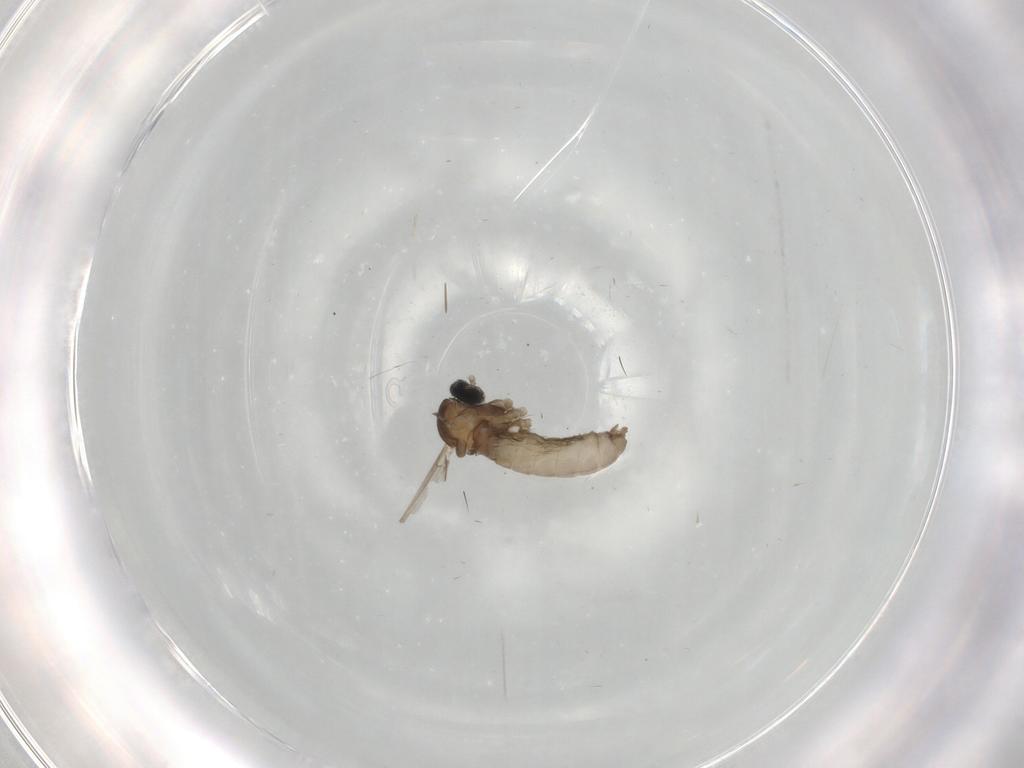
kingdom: Animalia
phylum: Arthropoda
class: Insecta
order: Diptera
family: Cecidomyiidae
